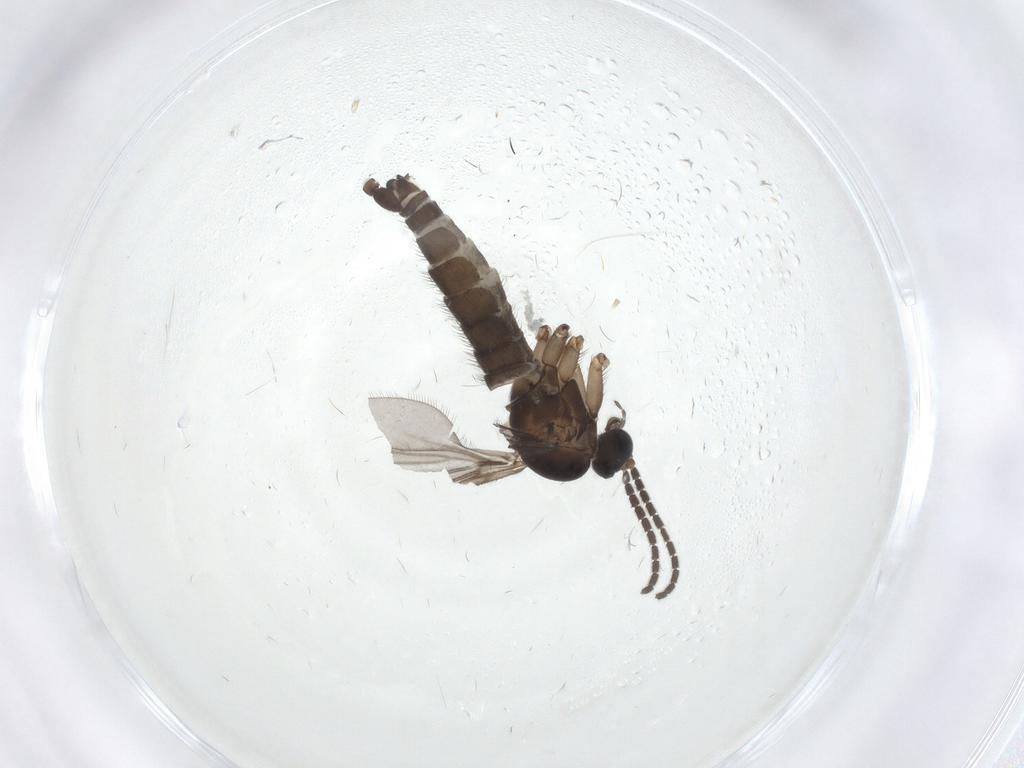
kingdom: Animalia
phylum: Arthropoda
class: Insecta
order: Diptera
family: Sciaridae
